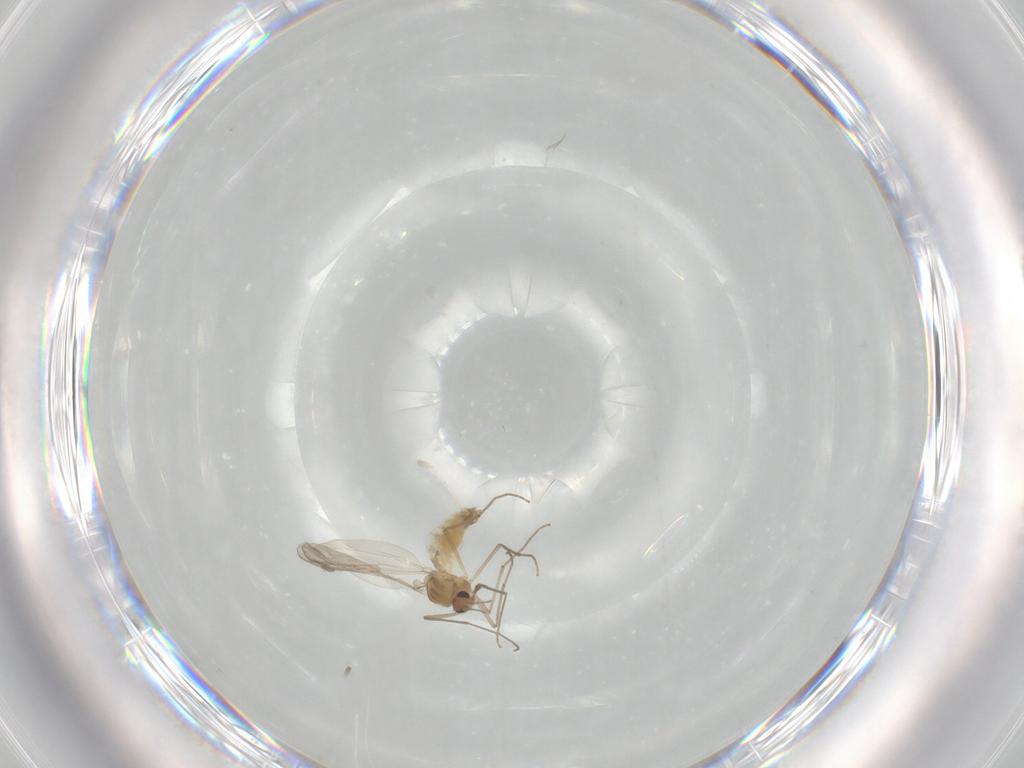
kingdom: Animalia
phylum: Arthropoda
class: Insecta
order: Diptera
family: Chironomidae
